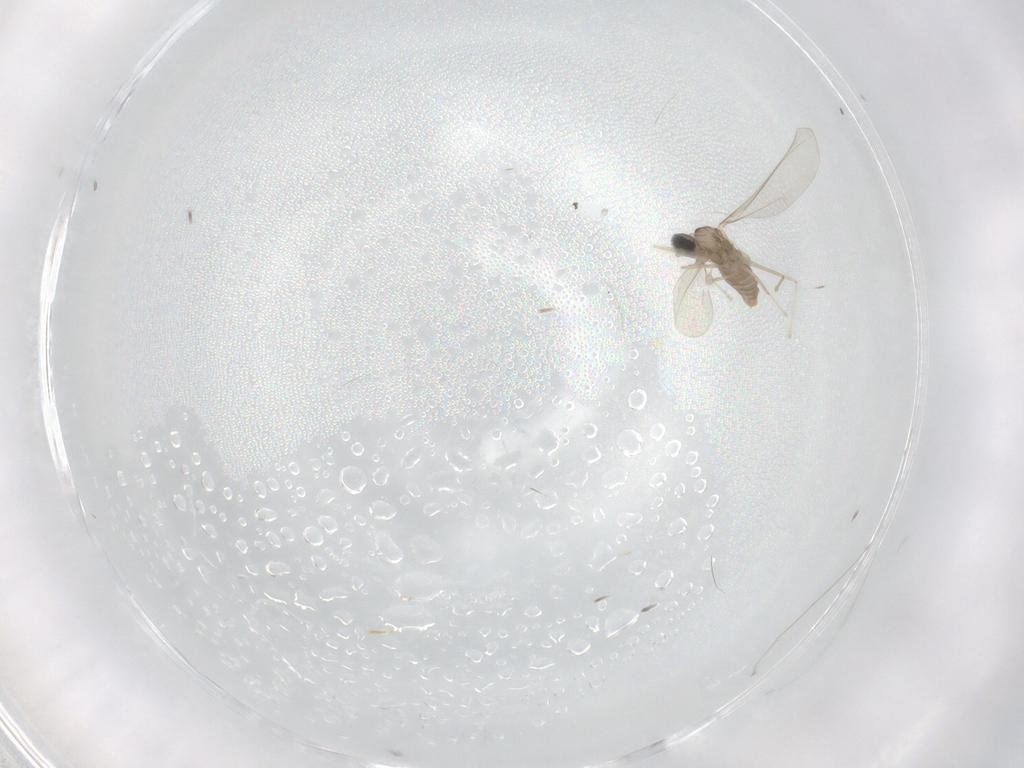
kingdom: Animalia
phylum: Arthropoda
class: Insecta
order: Diptera
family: Cecidomyiidae
